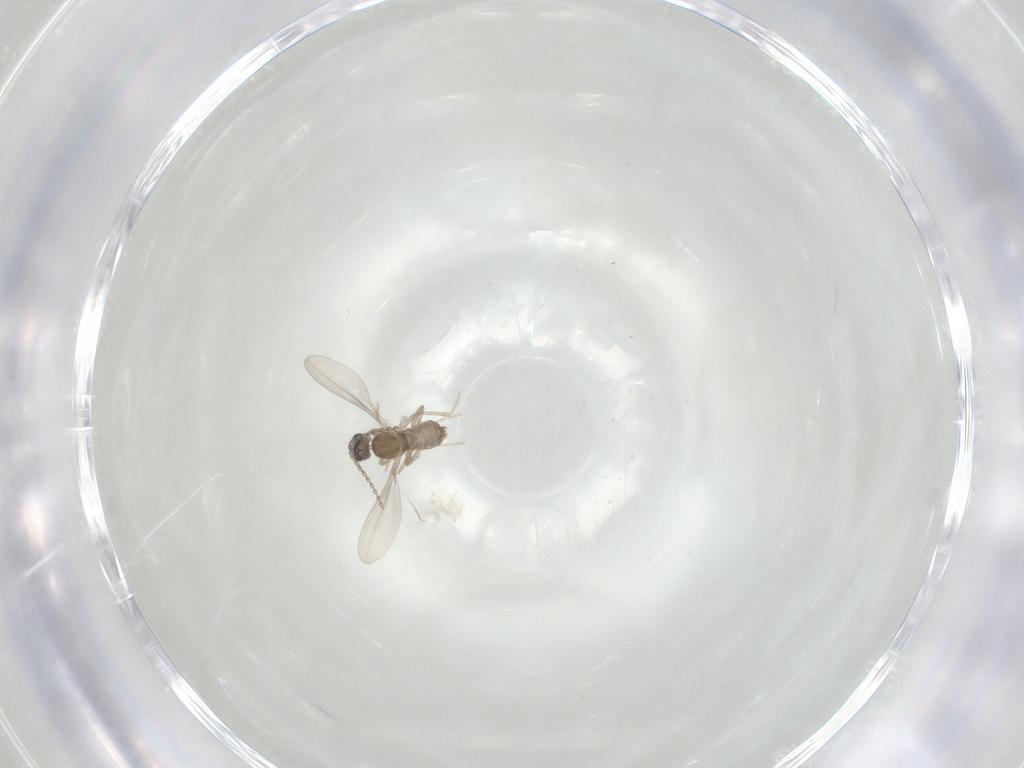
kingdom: Animalia
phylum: Arthropoda
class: Insecta
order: Diptera
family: Cecidomyiidae
